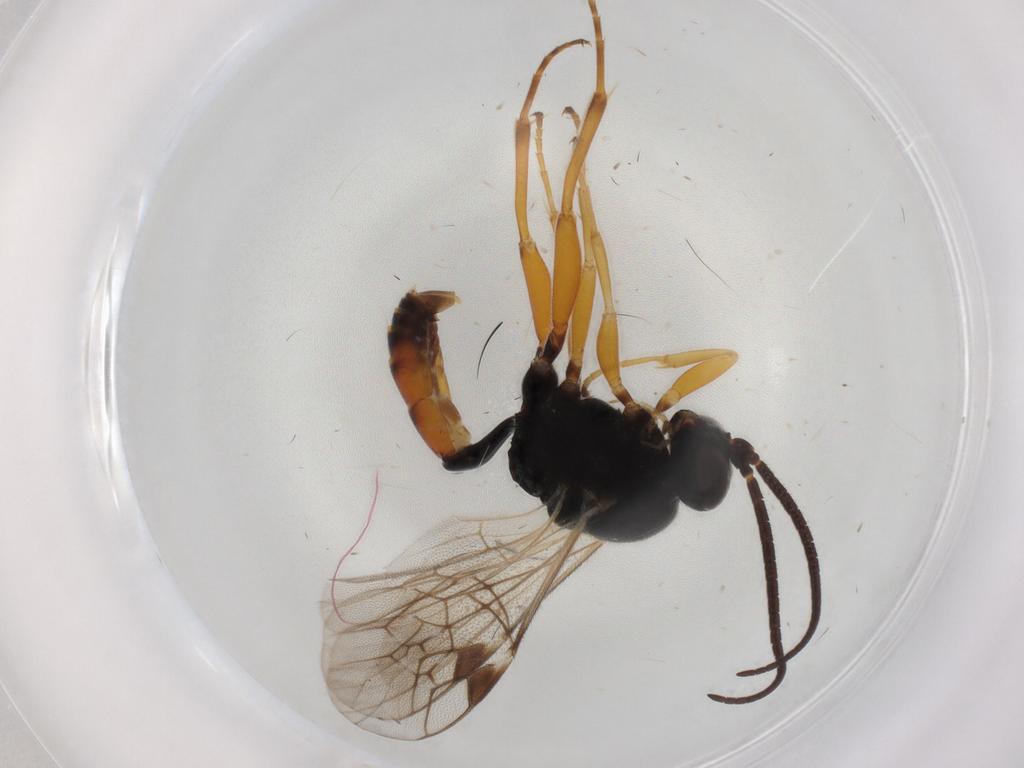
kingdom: Animalia
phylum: Arthropoda
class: Insecta
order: Hymenoptera
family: Ichneumonidae
